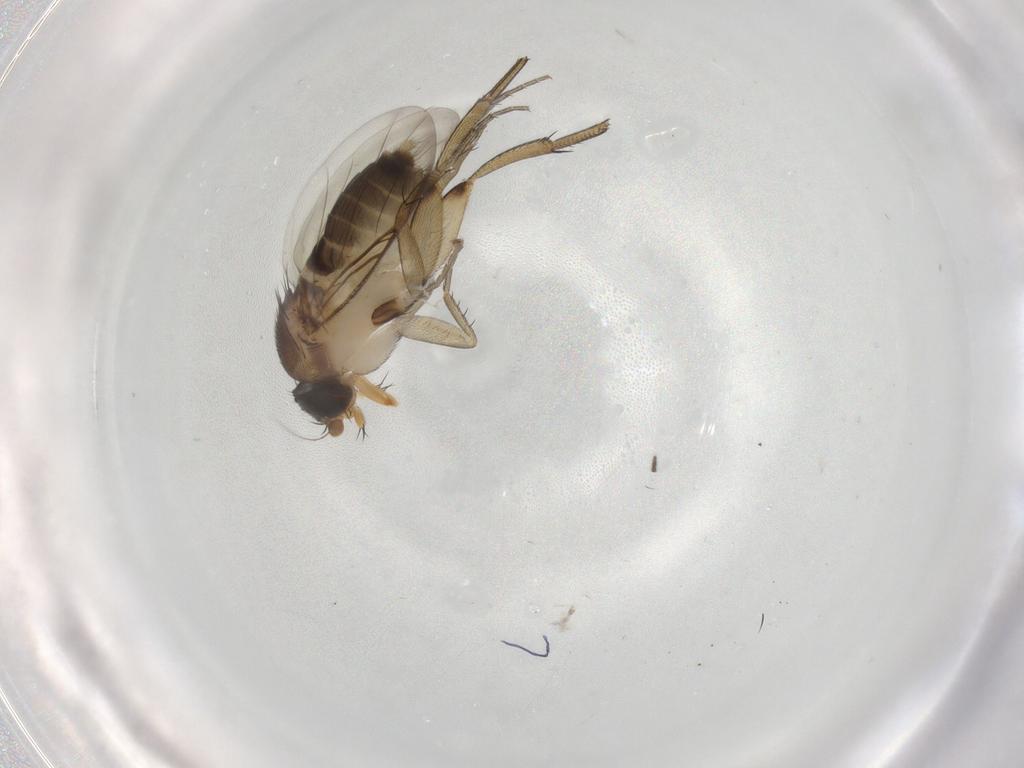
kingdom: Animalia
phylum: Arthropoda
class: Insecta
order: Diptera
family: Phoridae
